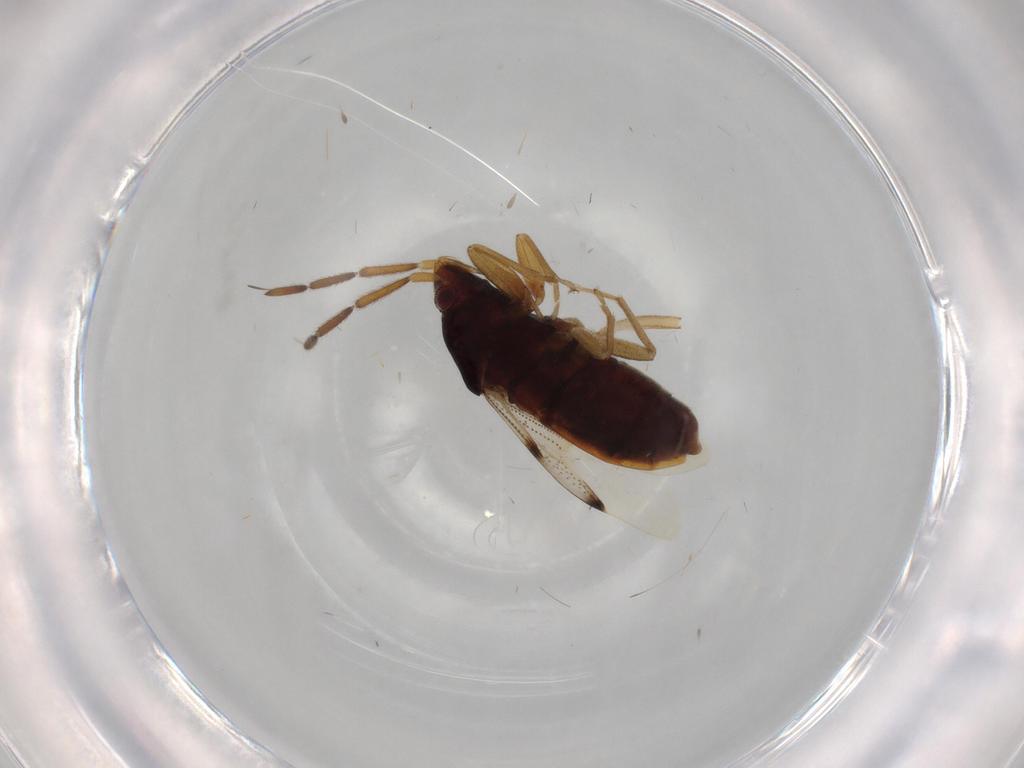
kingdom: Animalia
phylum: Arthropoda
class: Insecta
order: Hemiptera
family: Rhyparochromidae
